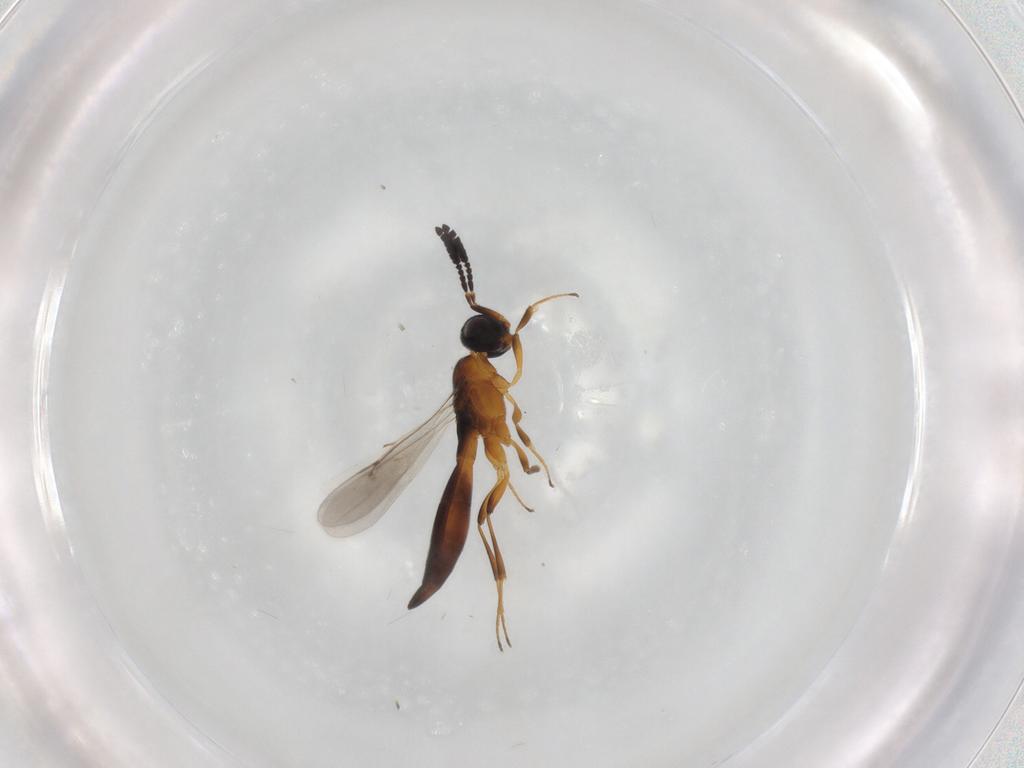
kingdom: Animalia
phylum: Arthropoda
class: Insecta
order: Hymenoptera
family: Scelionidae
